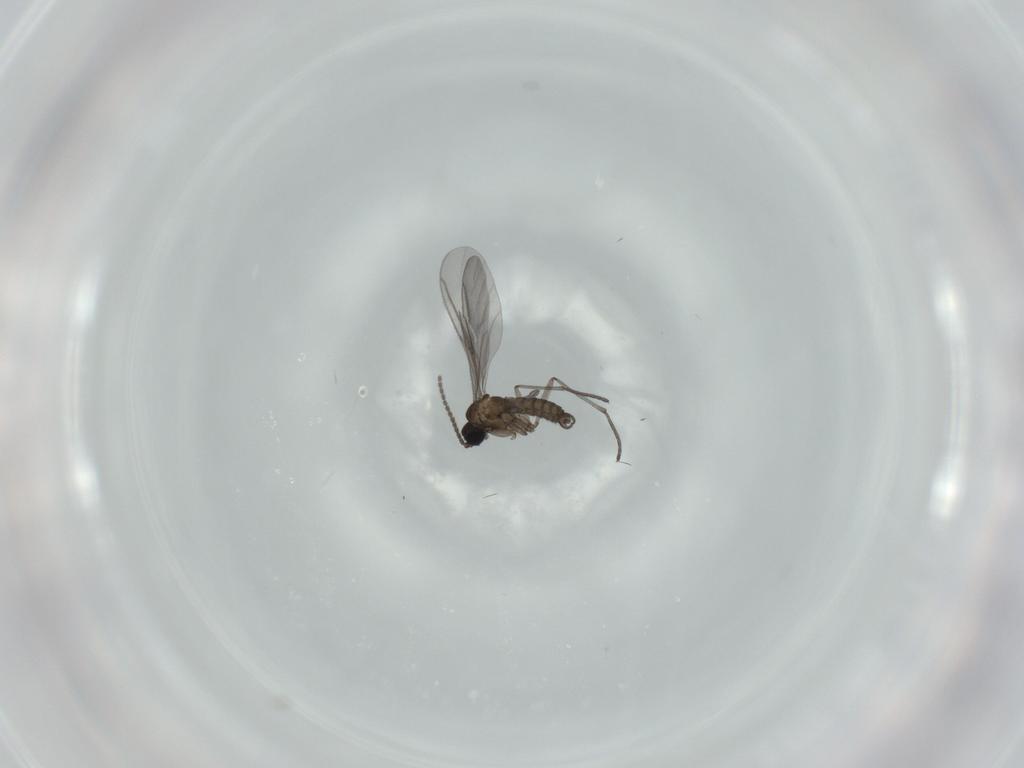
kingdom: Animalia
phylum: Arthropoda
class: Insecta
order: Diptera
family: Sciaridae
